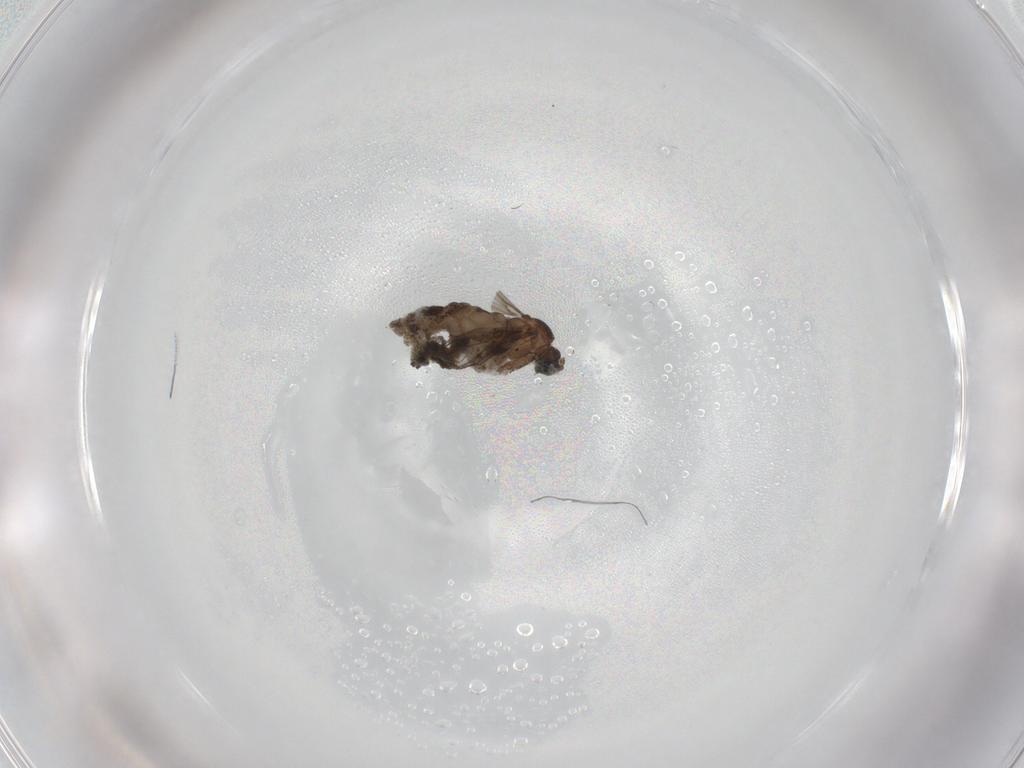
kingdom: Animalia
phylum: Arthropoda
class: Insecta
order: Diptera
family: Sciaridae
